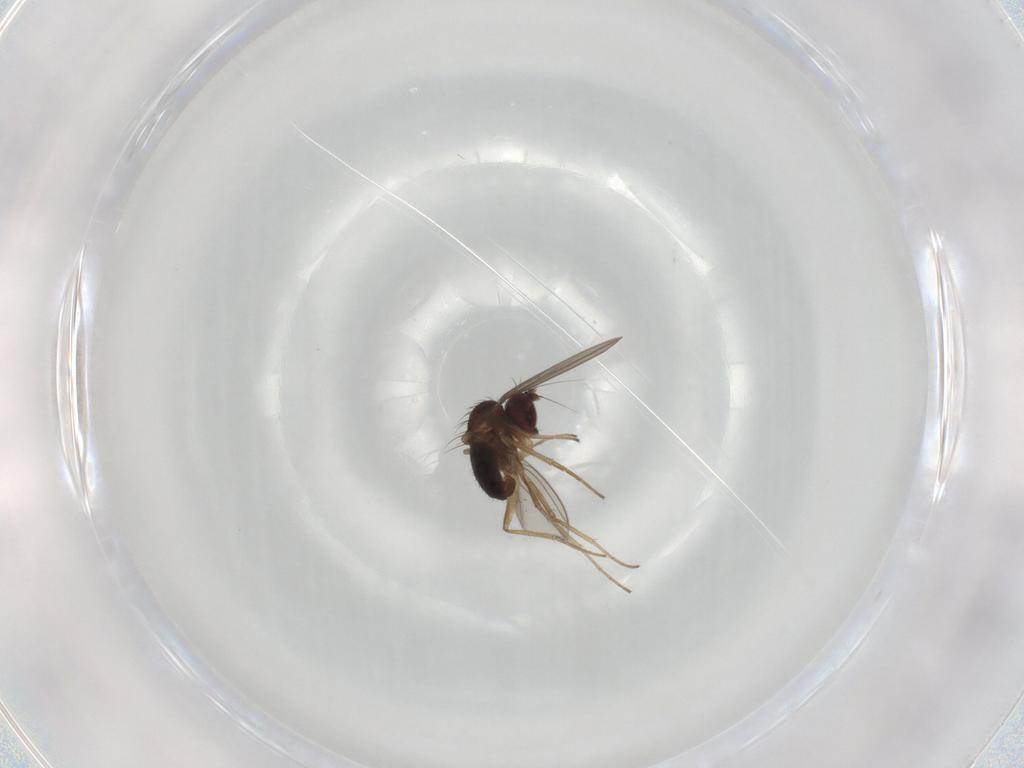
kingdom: Animalia
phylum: Arthropoda
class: Insecta
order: Diptera
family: Dolichopodidae
